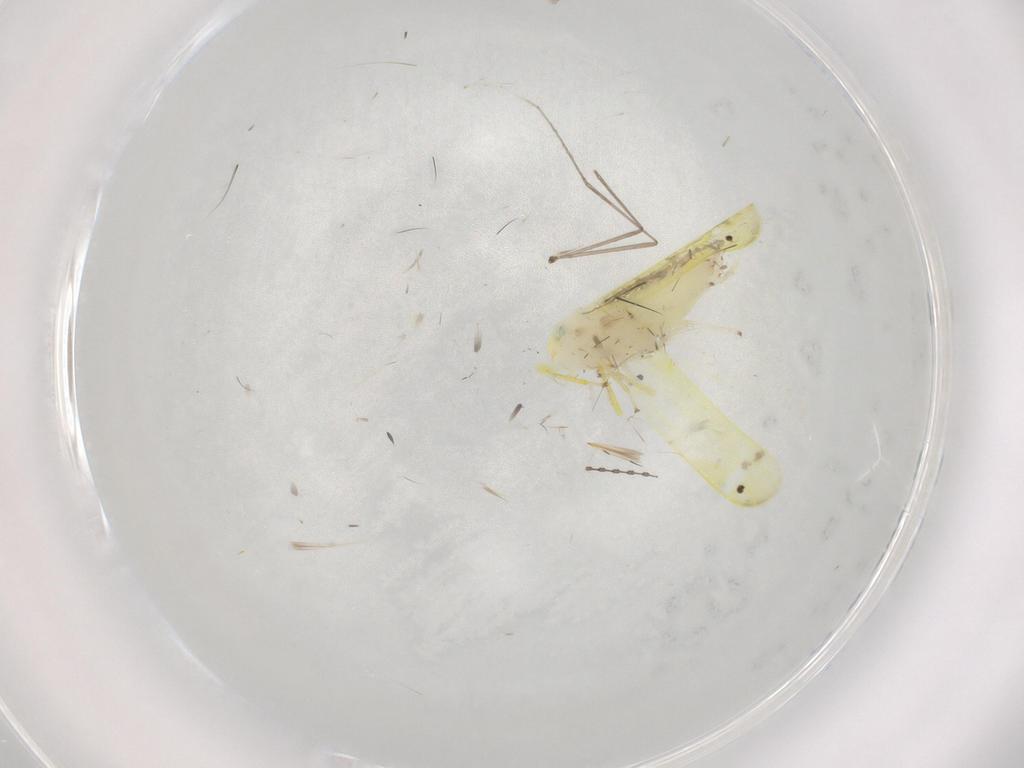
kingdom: Animalia
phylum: Arthropoda
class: Insecta
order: Hemiptera
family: Cicadellidae
